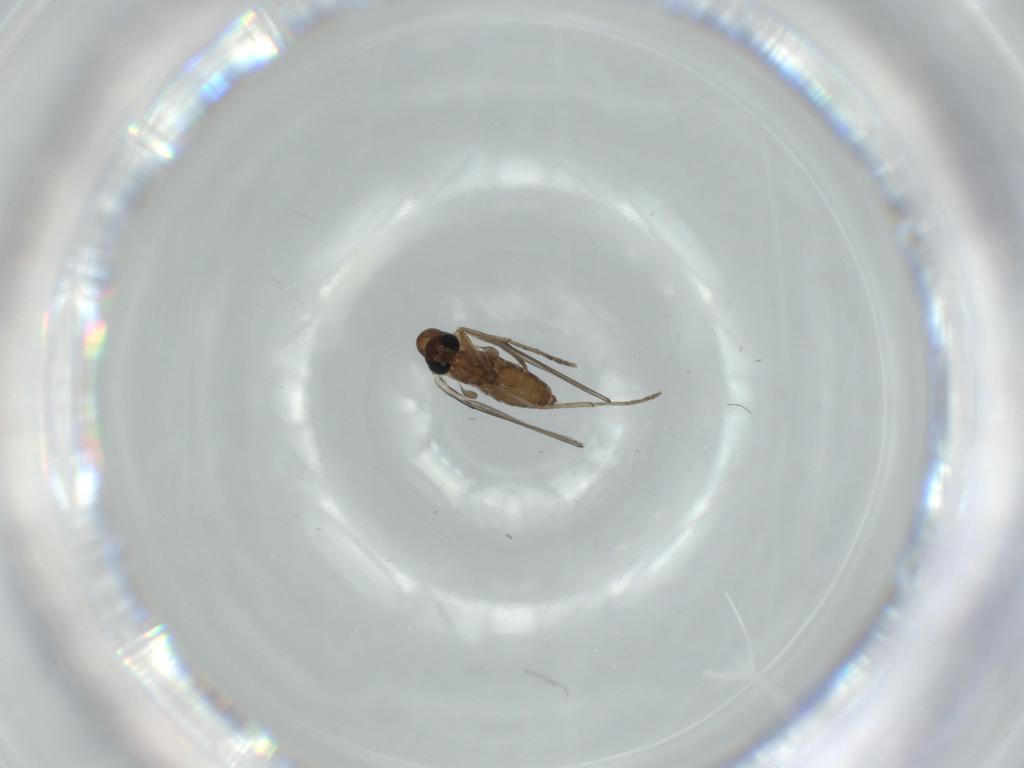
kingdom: Animalia
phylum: Arthropoda
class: Insecta
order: Diptera
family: Psychodidae
